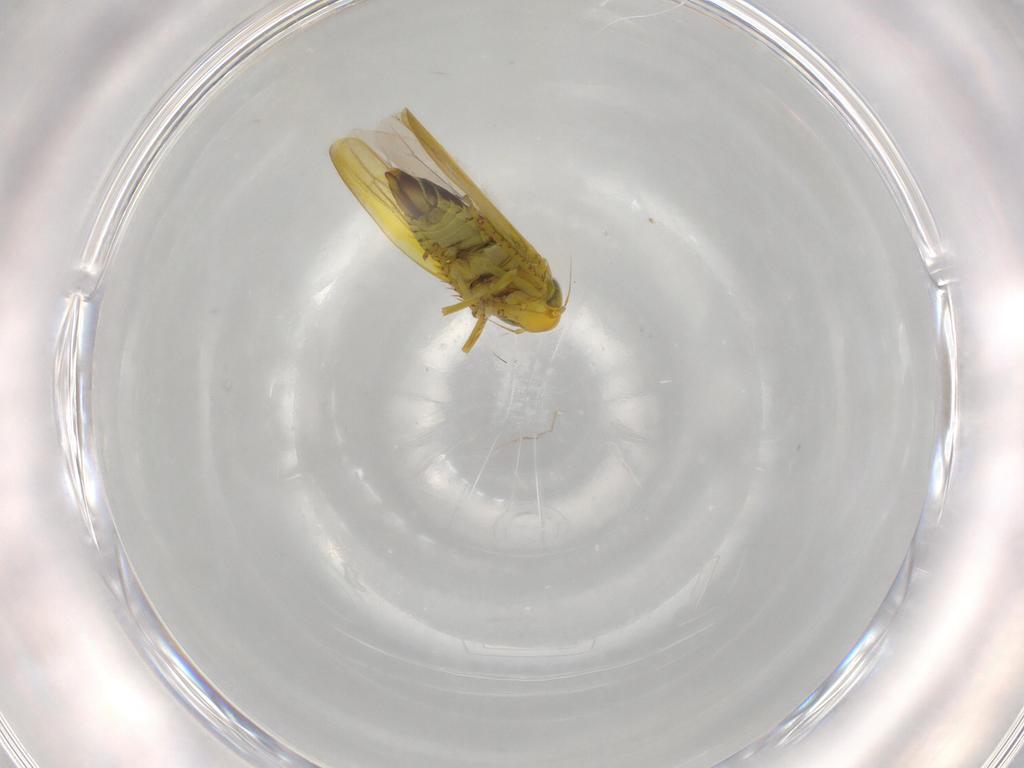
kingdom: Animalia
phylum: Arthropoda
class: Insecta
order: Hemiptera
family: Cicadellidae
